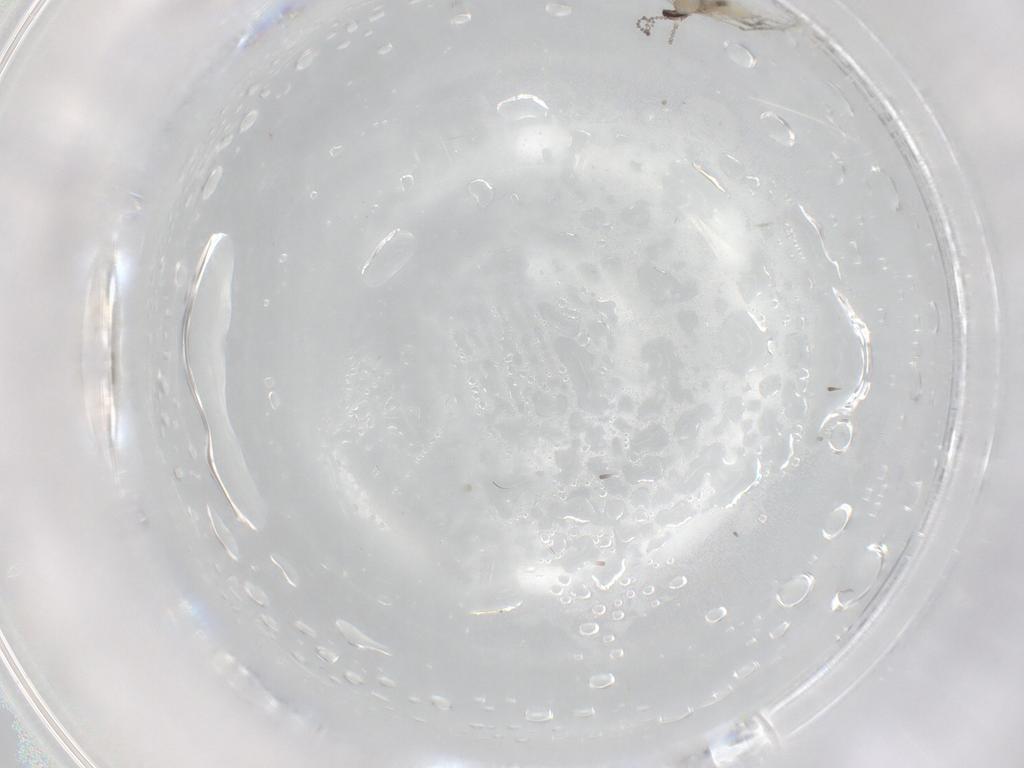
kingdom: Animalia
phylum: Arthropoda
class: Insecta
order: Diptera
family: Cecidomyiidae
